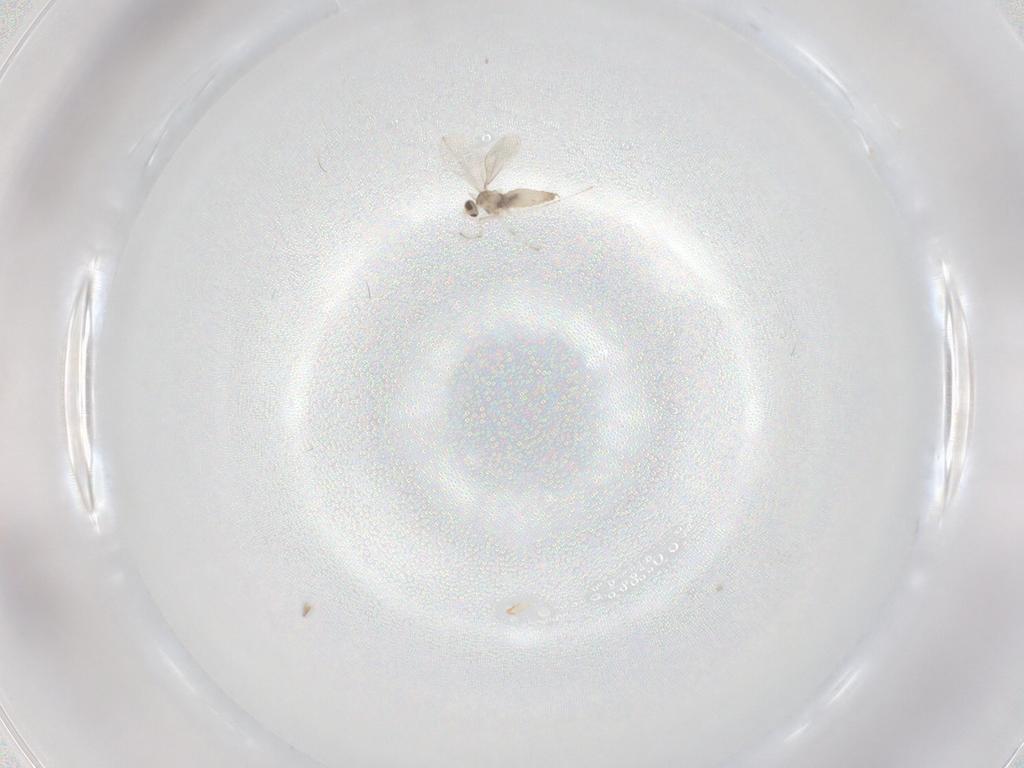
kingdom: Animalia
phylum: Arthropoda
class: Insecta
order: Diptera
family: Cecidomyiidae
